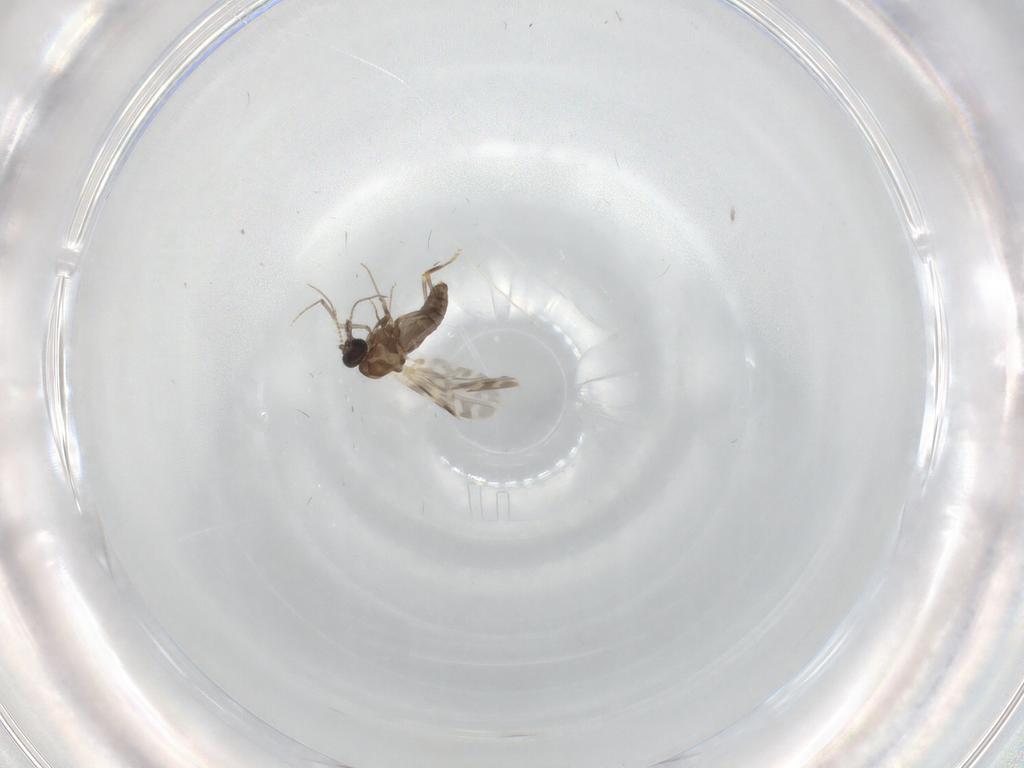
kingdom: Animalia
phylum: Arthropoda
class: Insecta
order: Diptera
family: Ceratopogonidae
